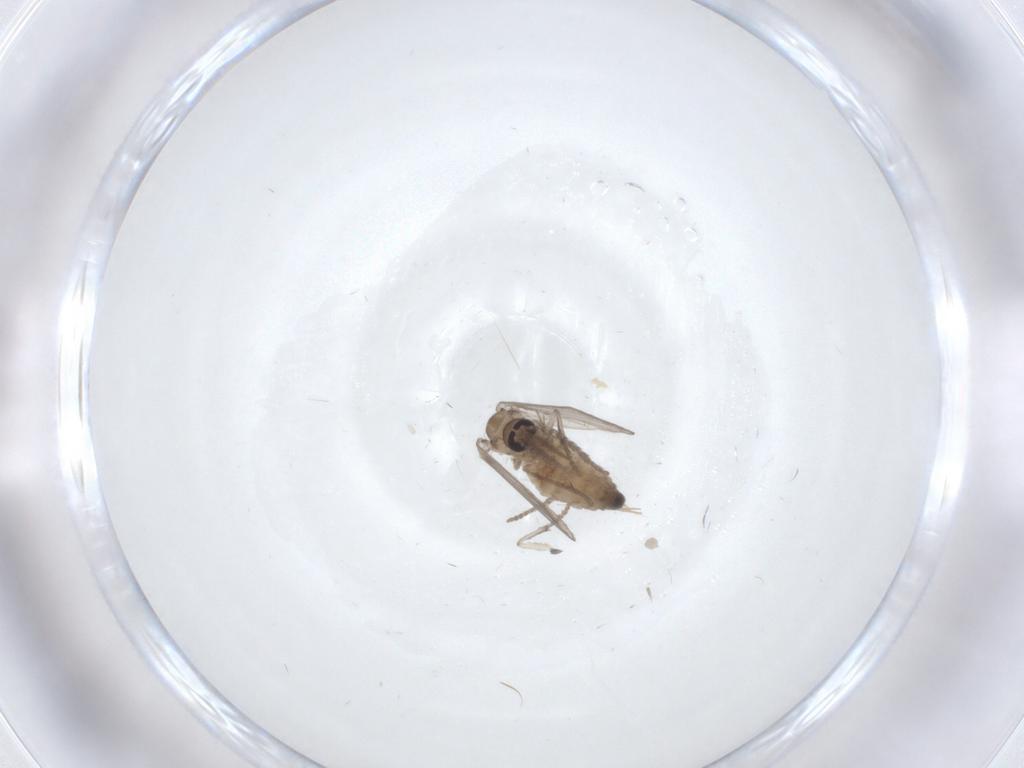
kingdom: Animalia
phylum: Arthropoda
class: Insecta
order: Diptera
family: Psychodidae
